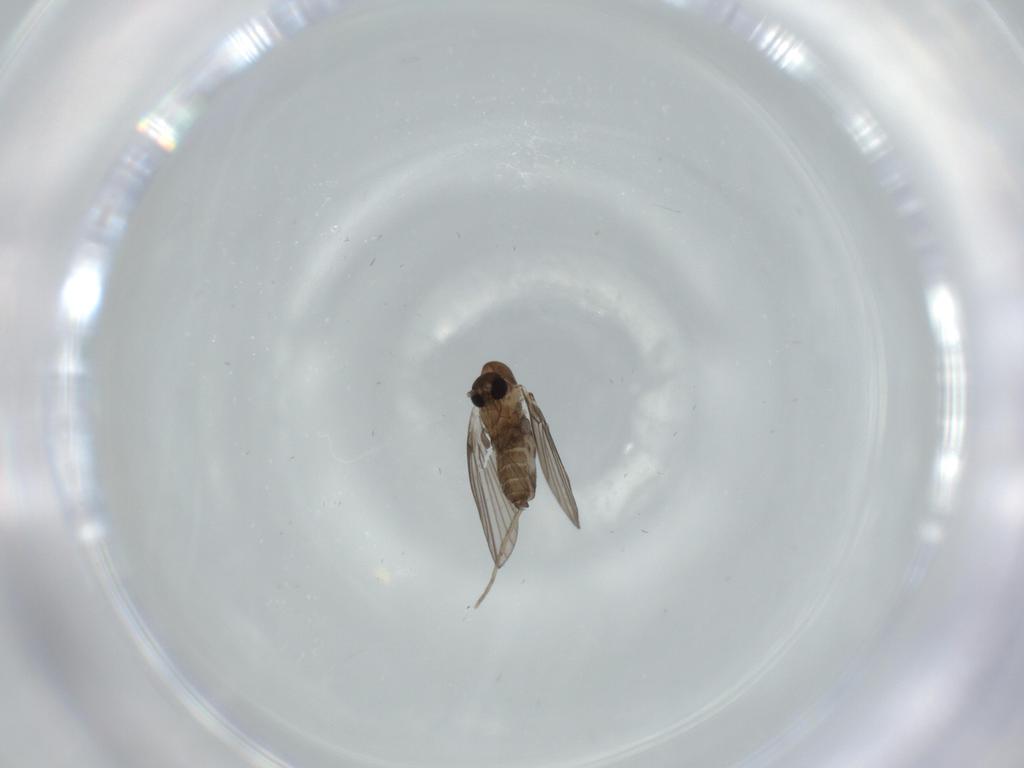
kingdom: Animalia
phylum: Arthropoda
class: Insecta
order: Diptera
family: Psychodidae
